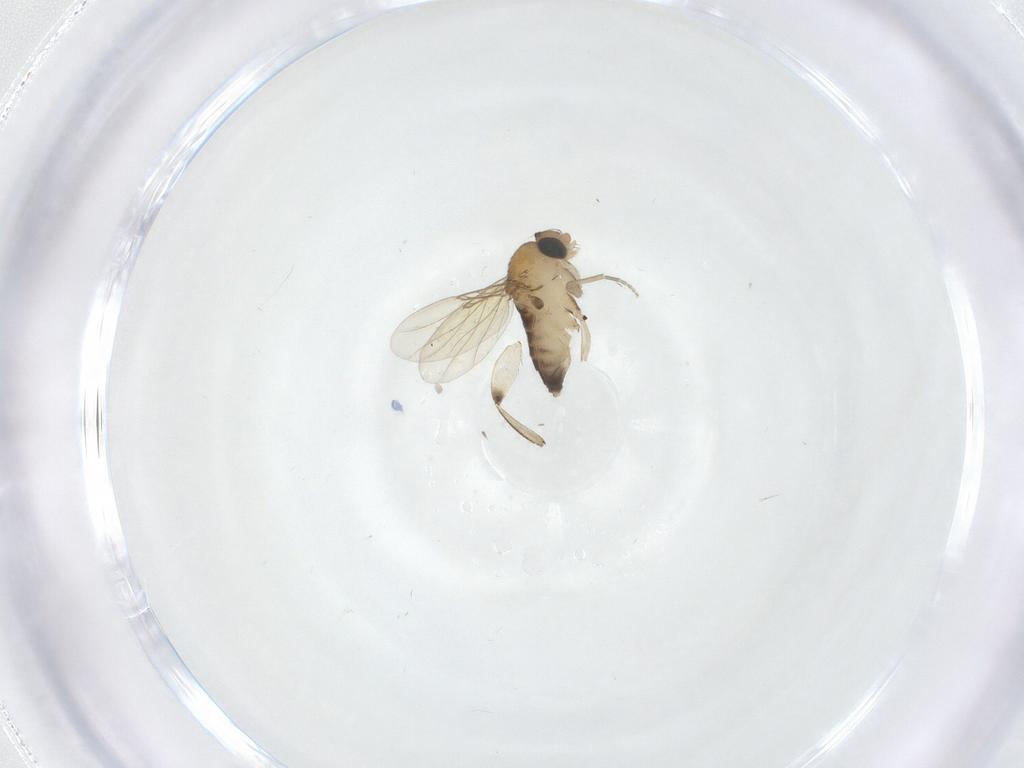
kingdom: Animalia
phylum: Arthropoda
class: Insecta
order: Diptera
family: Phoridae
